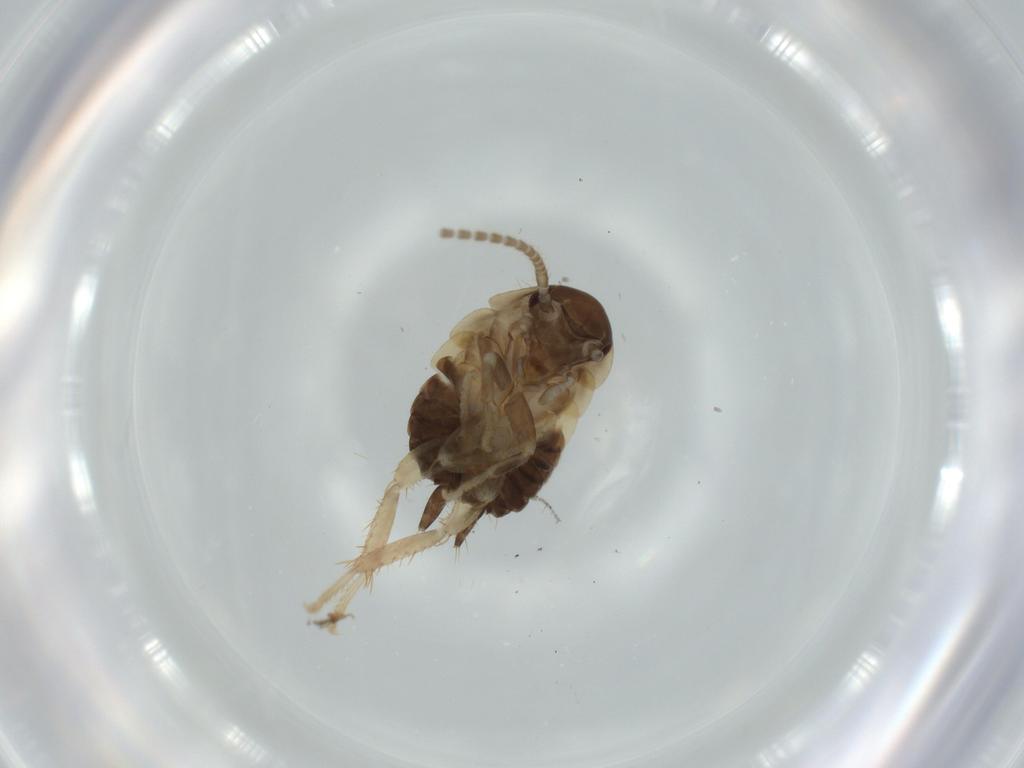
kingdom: Animalia
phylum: Arthropoda
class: Insecta
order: Blattodea
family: Ectobiidae
